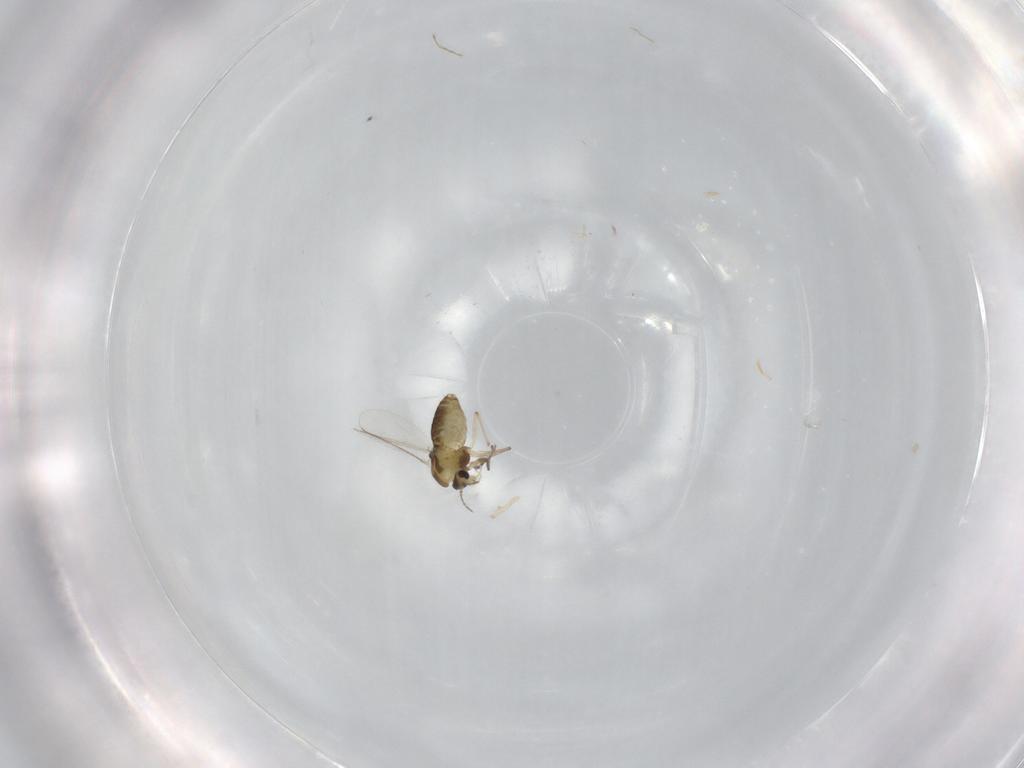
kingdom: Animalia
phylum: Arthropoda
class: Insecta
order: Diptera
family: Chironomidae
